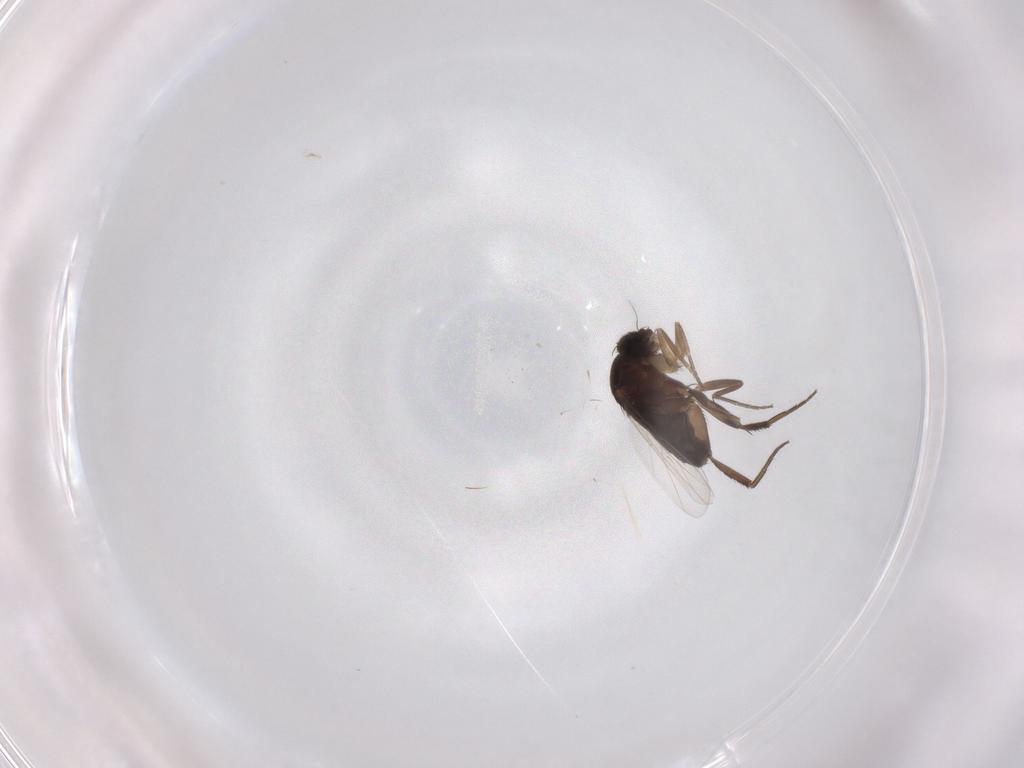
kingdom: Animalia
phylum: Arthropoda
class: Insecta
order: Diptera
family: Phoridae
